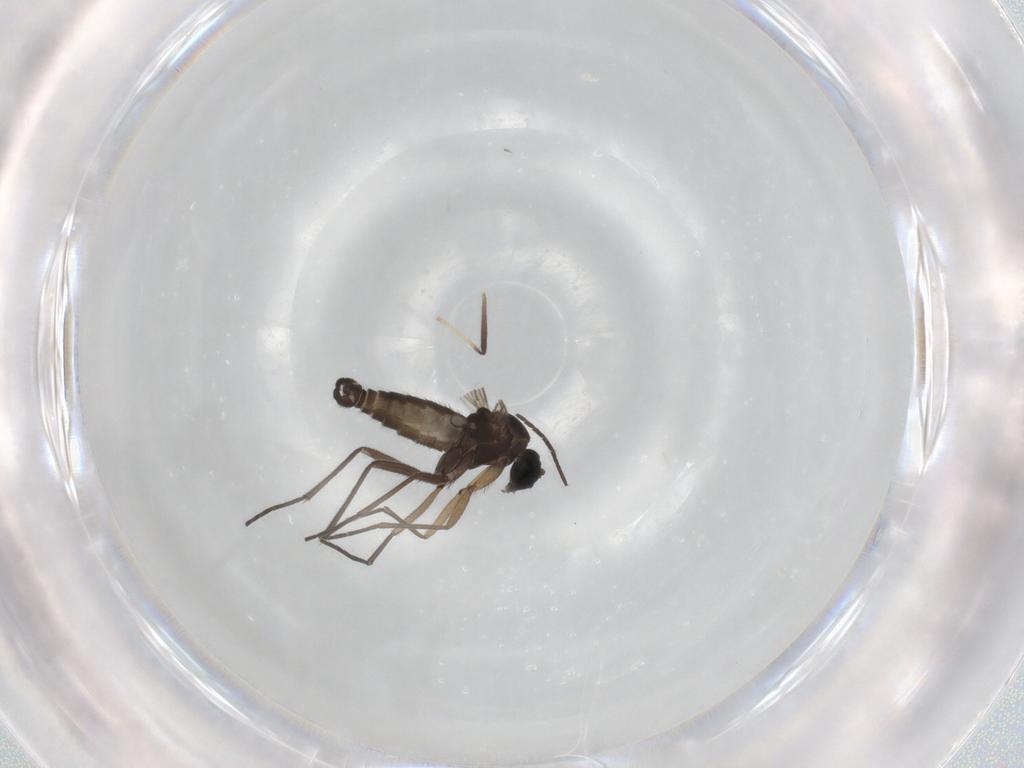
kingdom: Animalia
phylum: Arthropoda
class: Insecta
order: Diptera
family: Sciaridae
